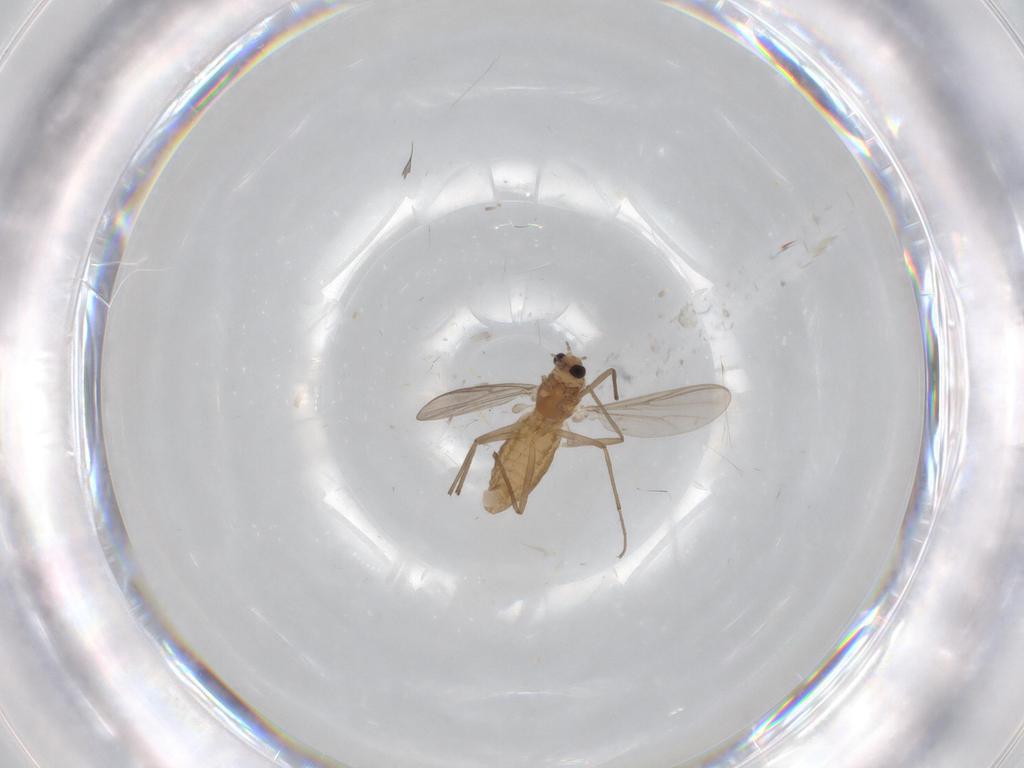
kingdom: Animalia
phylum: Arthropoda
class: Insecta
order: Diptera
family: Chironomidae
